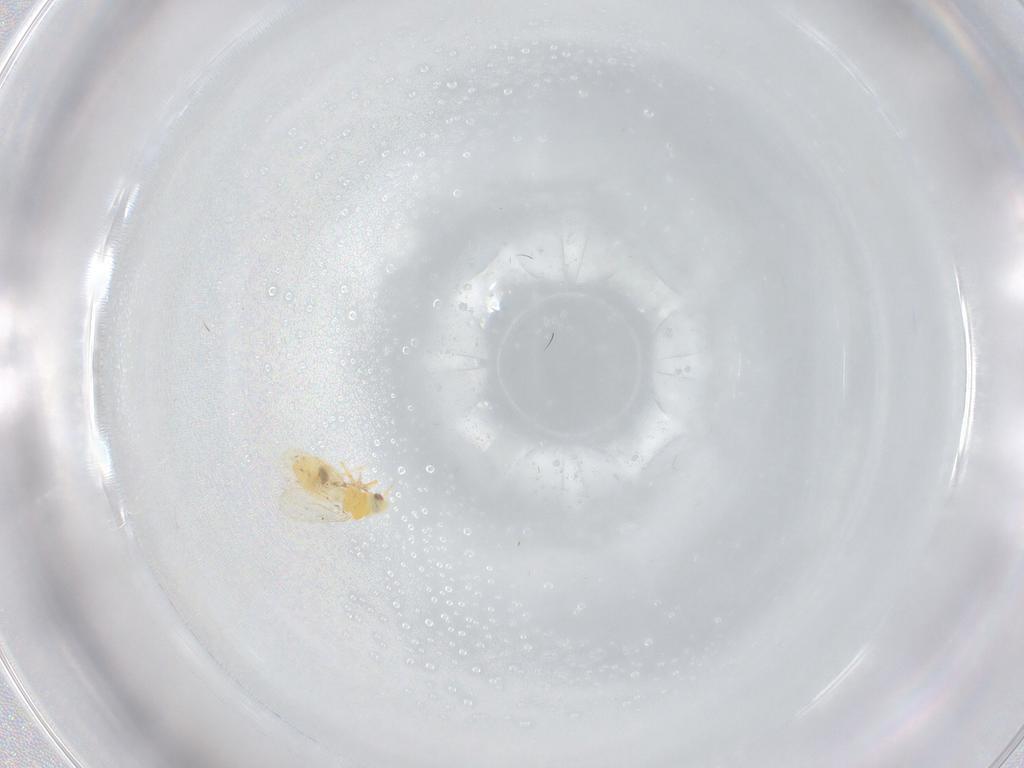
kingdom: Animalia
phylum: Arthropoda
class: Insecta
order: Hemiptera
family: Aleyrodidae
